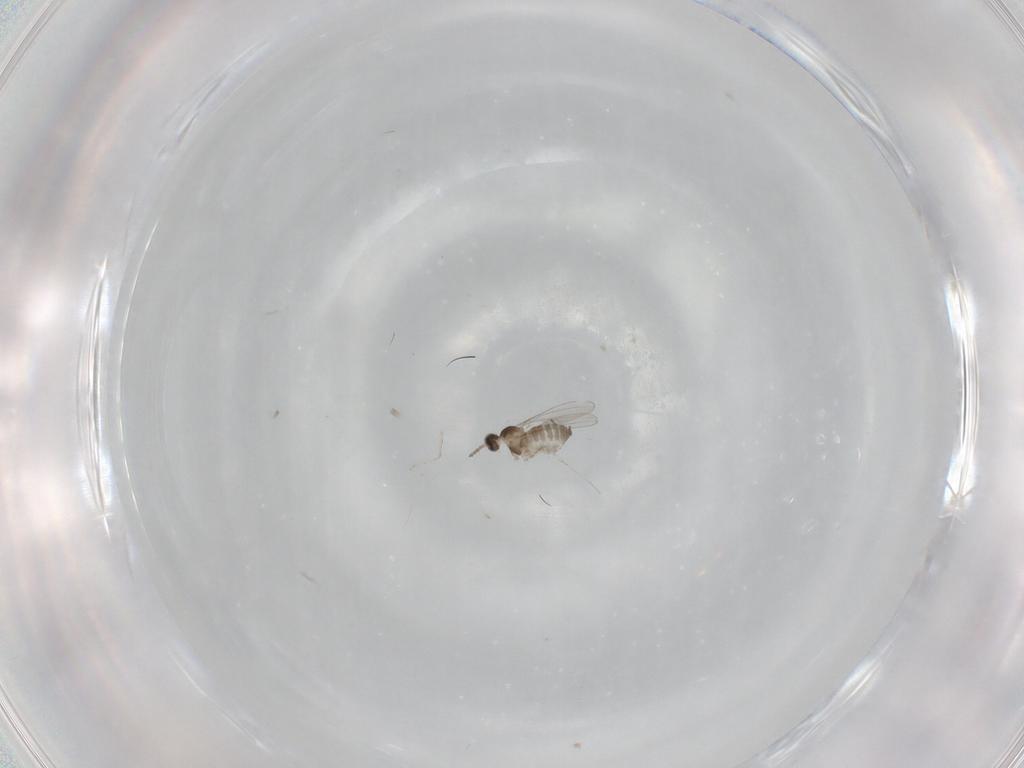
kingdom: Animalia
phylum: Arthropoda
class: Insecta
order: Diptera
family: Cecidomyiidae
